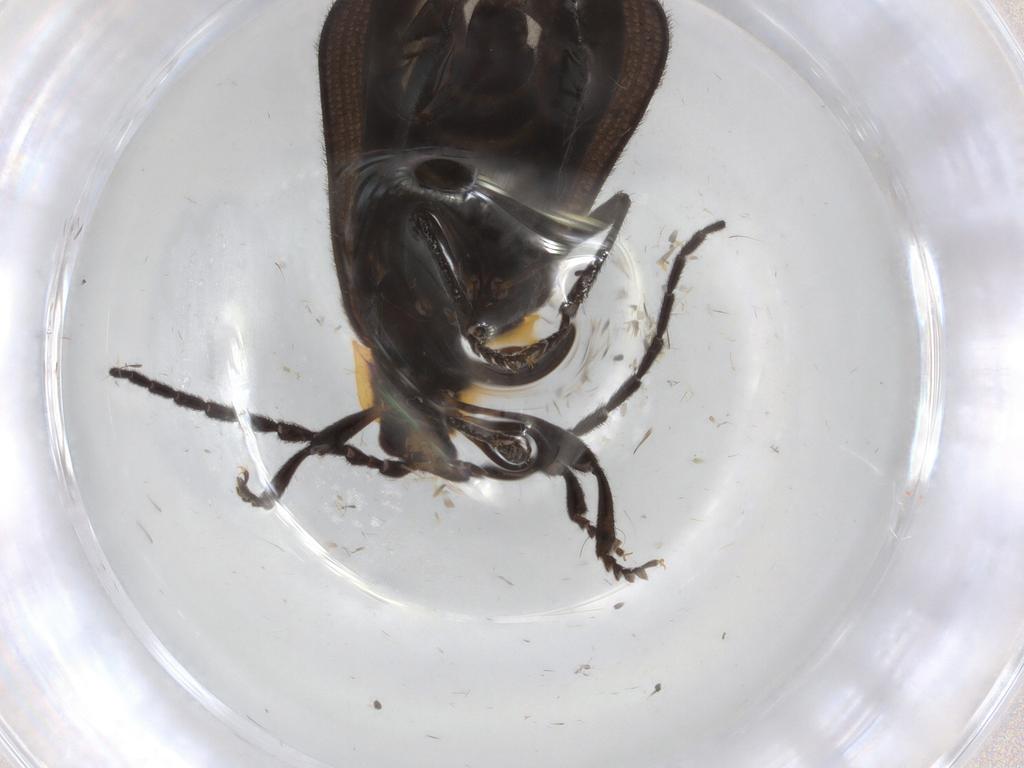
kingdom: Animalia
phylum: Arthropoda
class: Insecta
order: Coleoptera
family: Lycidae
